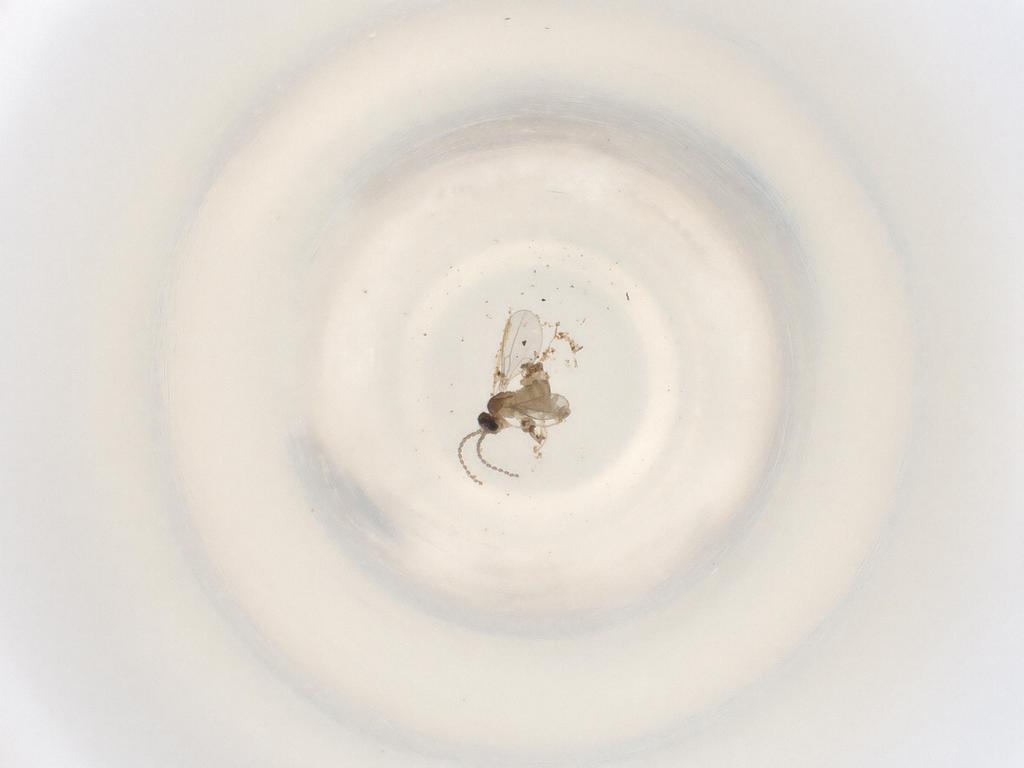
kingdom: Animalia
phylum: Arthropoda
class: Insecta
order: Diptera
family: Cecidomyiidae
